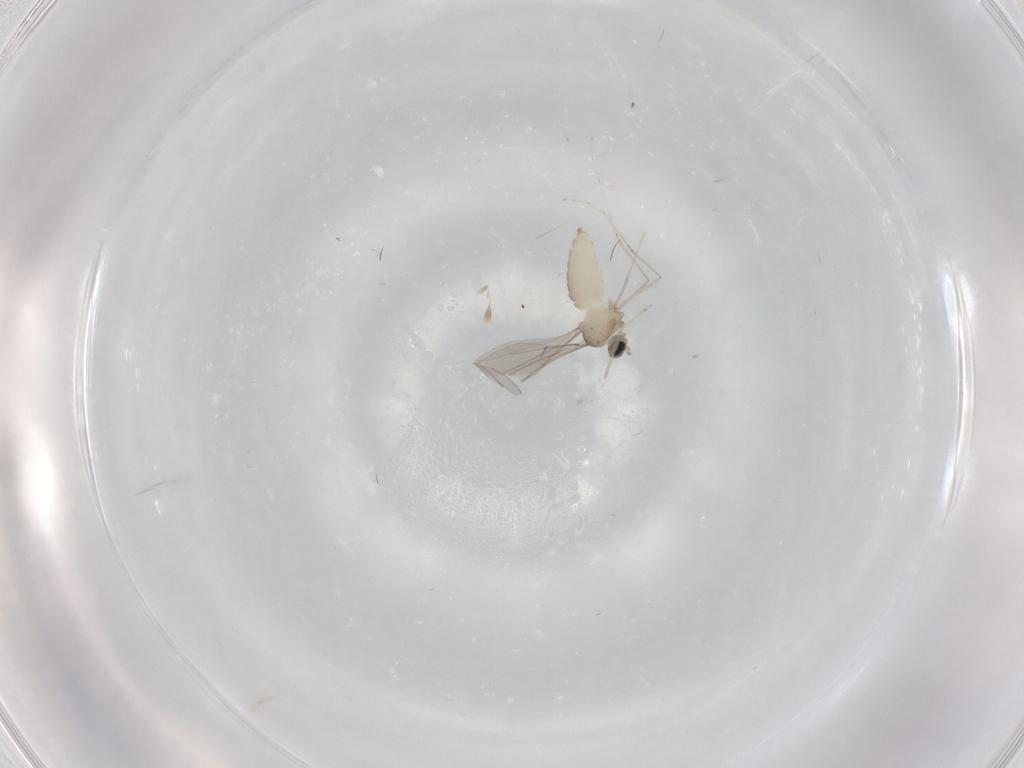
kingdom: Animalia
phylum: Arthropoda
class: Insecta
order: Diptera
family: Cecidomyiidae
